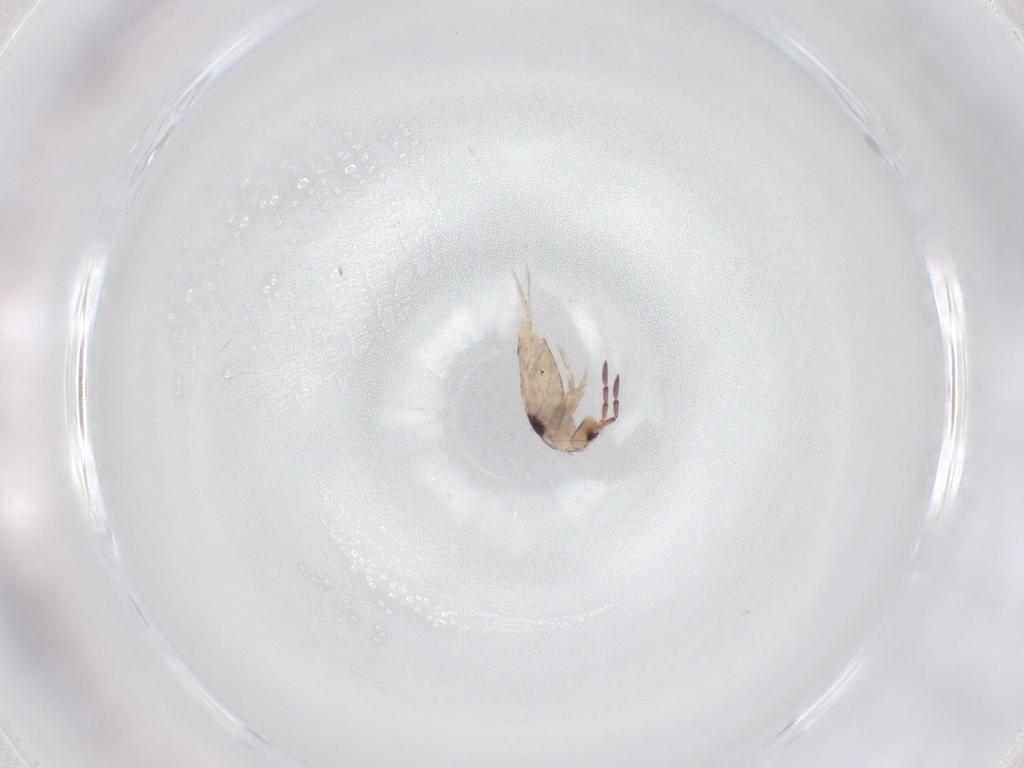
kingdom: Animalia
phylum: Arthropoda
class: Collembola
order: Entomobryomorpha
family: Entomobryidae
